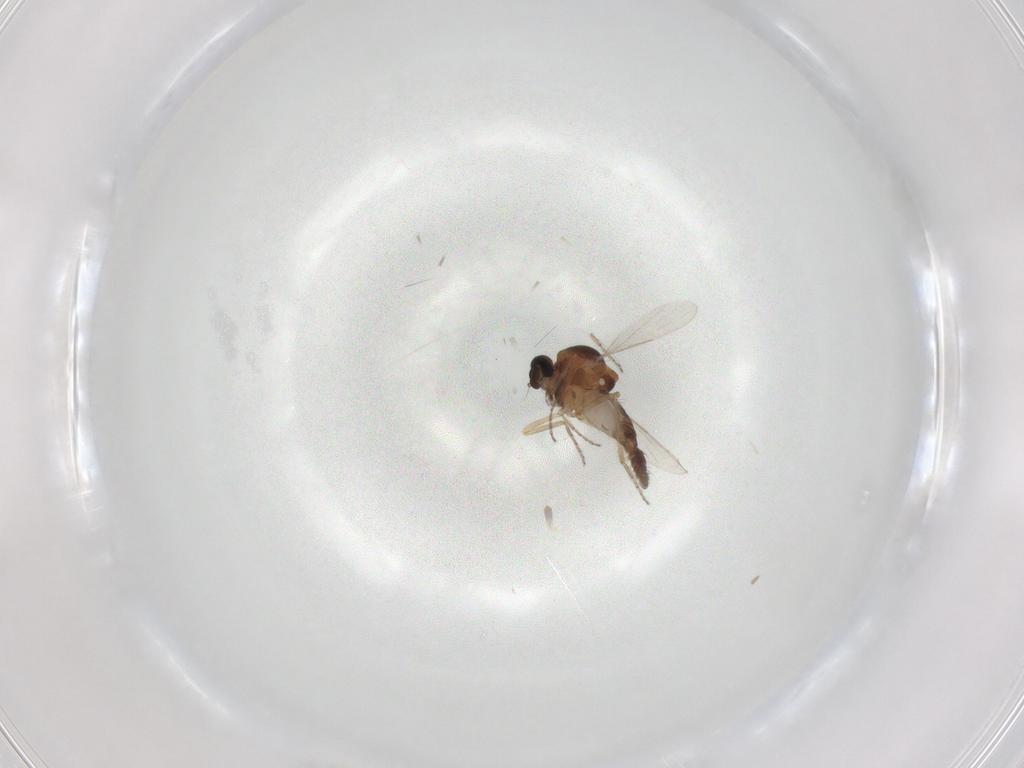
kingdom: Animalia
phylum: Arthropoda
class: Insecta
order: Diptera
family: Ceratopogonidae
